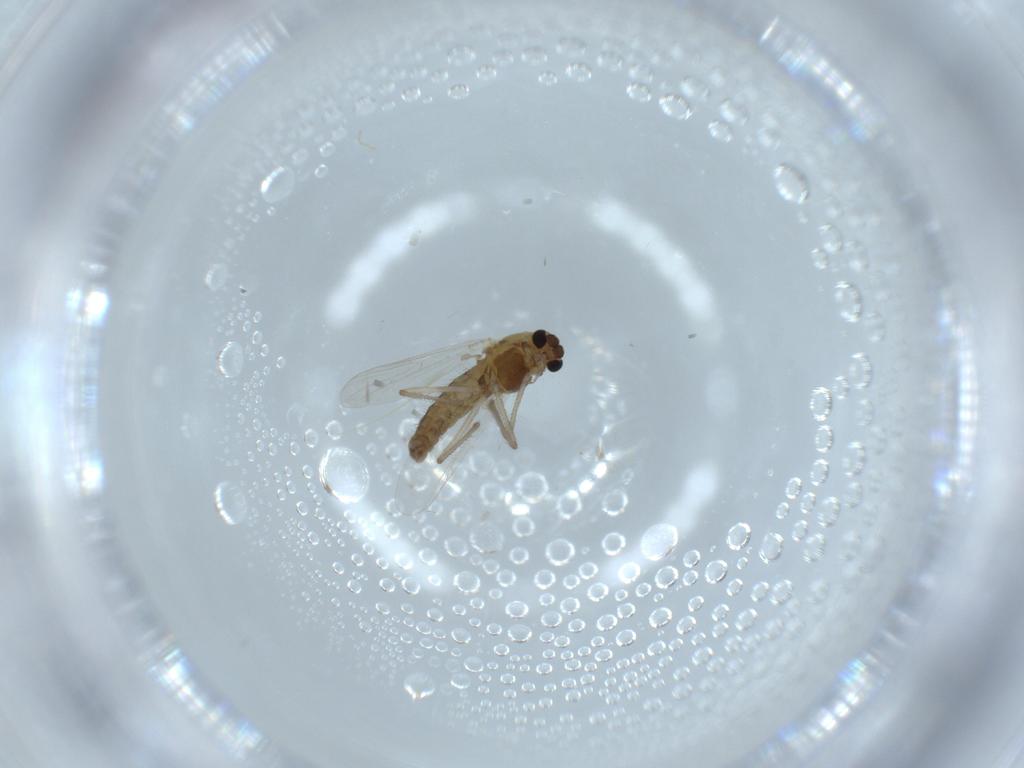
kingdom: Animalia
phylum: Arthropoda
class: Insecta
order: Diptera
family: Chironomidae
